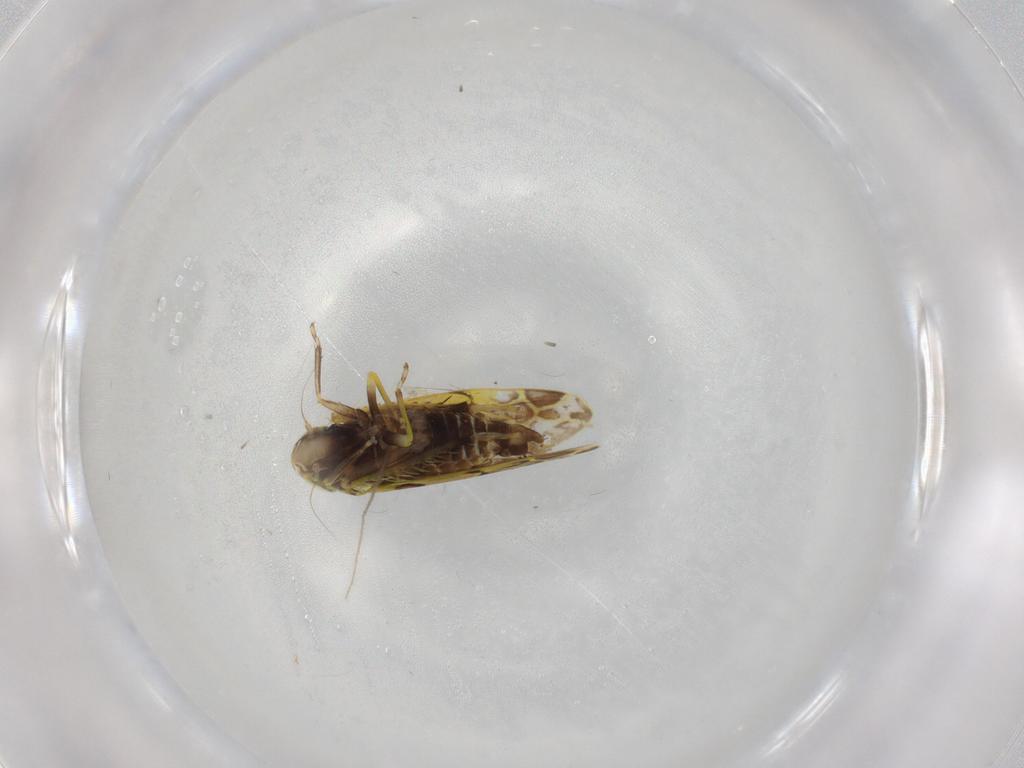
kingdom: Animalia
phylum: Arthropoda
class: Insecta
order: Hemiptera
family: Cicadellidae
